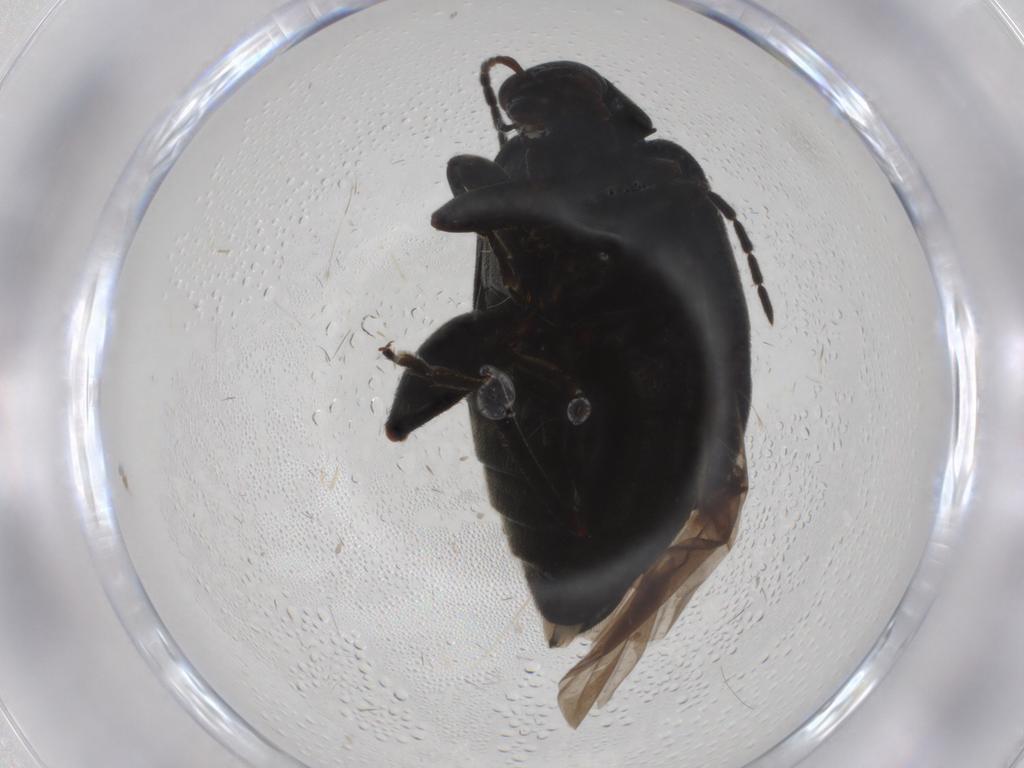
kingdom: Animalia
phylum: Arthropoda
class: Insecta
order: Coleoptera
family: Chrysomelidae
